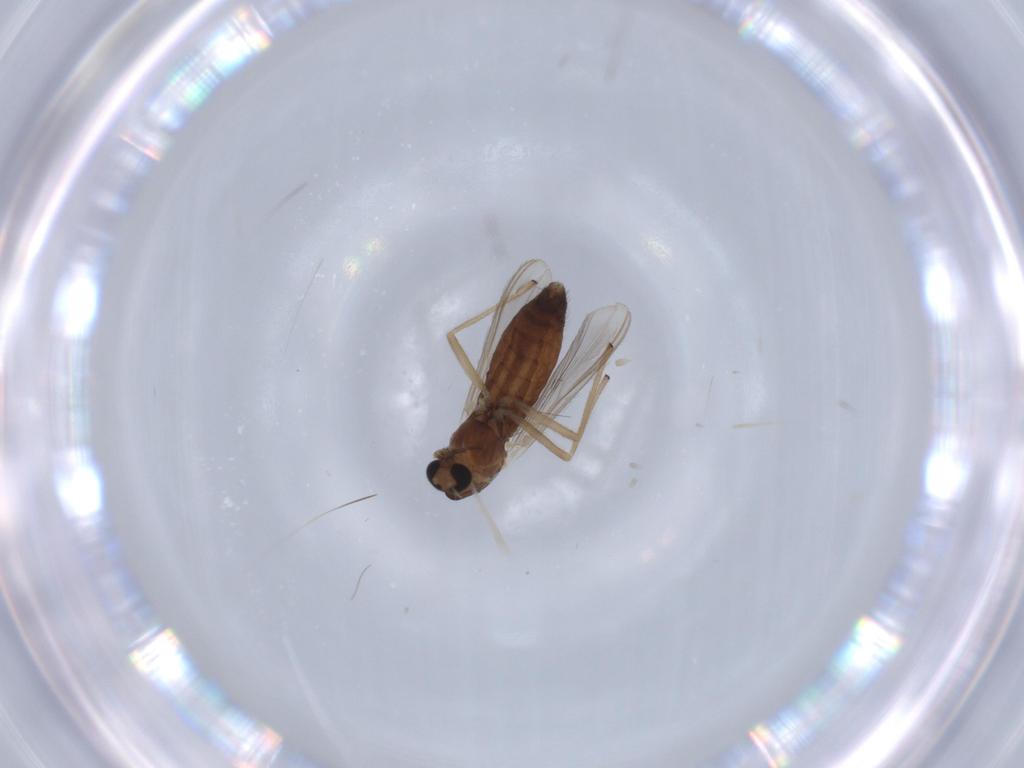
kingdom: Animalia
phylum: Arthropoda
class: Insecta
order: Diptera
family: Chironomidae
